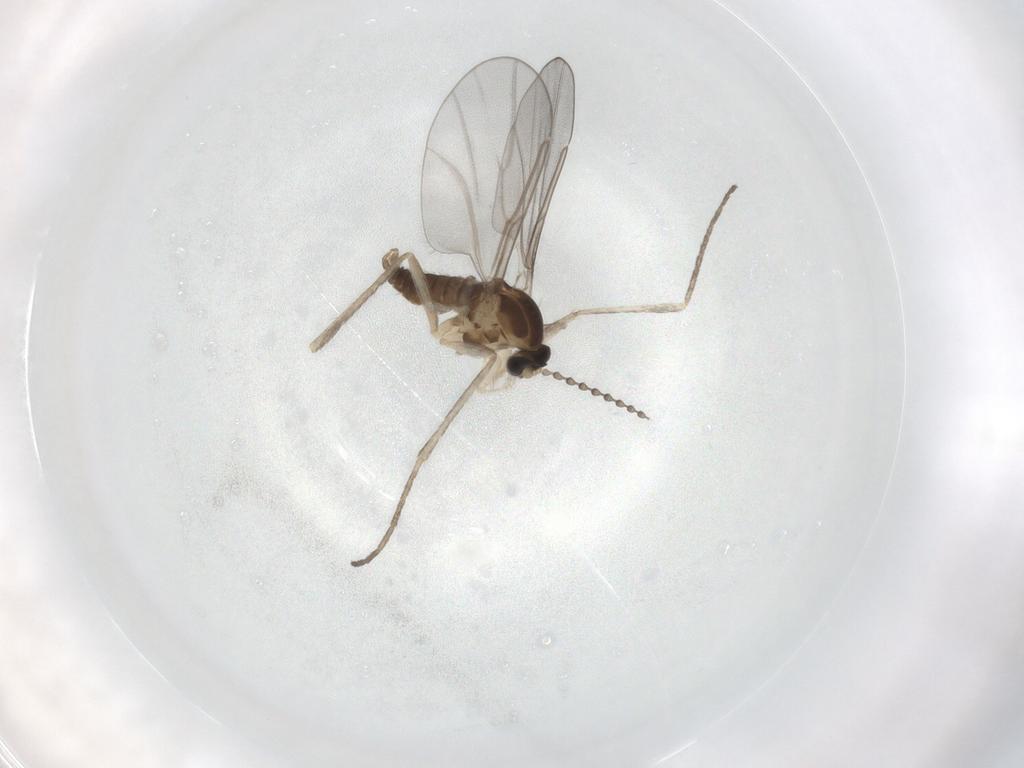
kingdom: Animalia
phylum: Arthropoda
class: Insecta
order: Diptera
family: Cecidomyiidae
